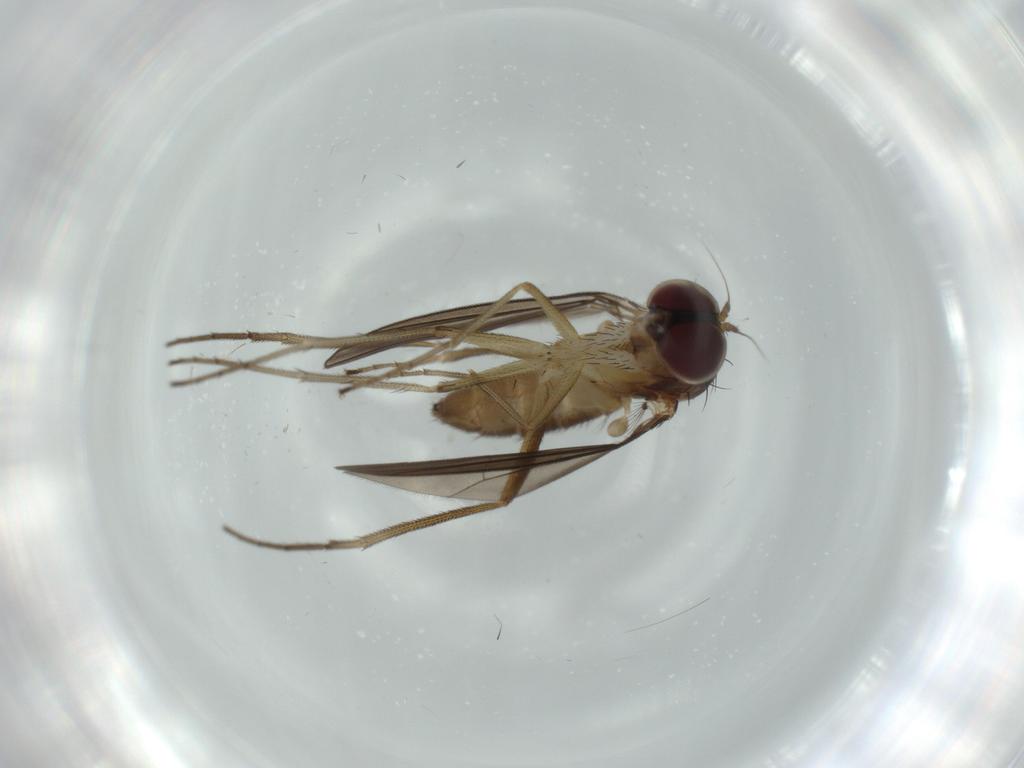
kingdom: Animalia
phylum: Arthropoda
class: Insecta
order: Diptera
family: Dolichopodidae
